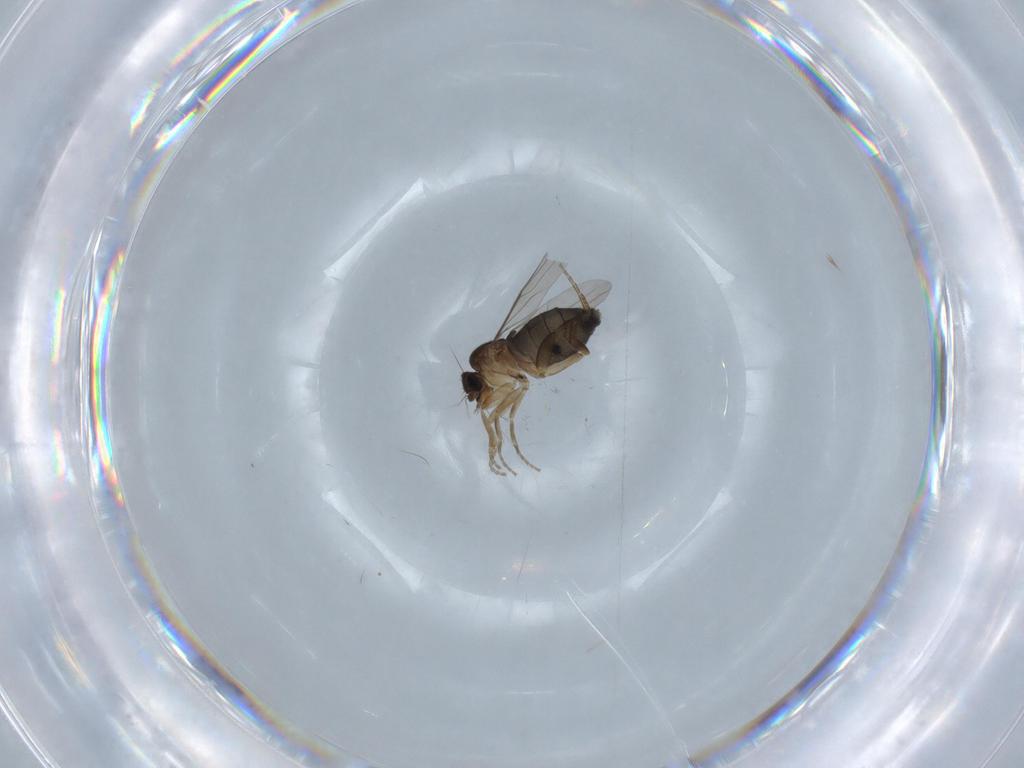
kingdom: Animalia
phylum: Arthropoda
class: Insecta
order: Diptera
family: Phoridae
